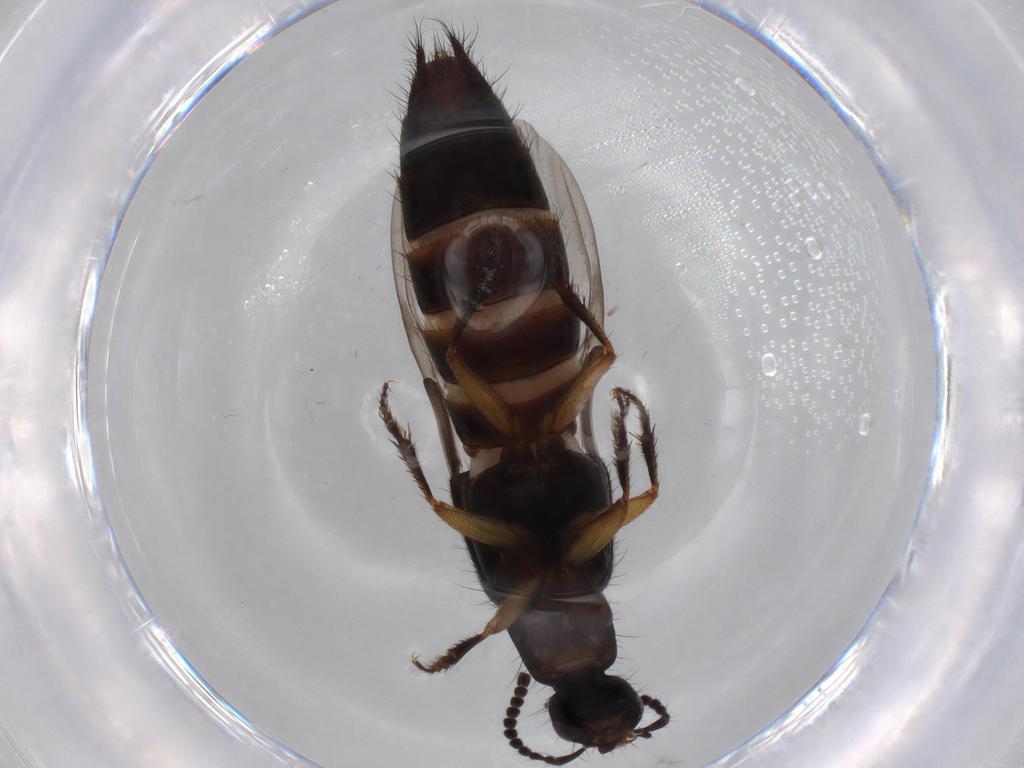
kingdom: Animalia
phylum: Arthropoda
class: Insecta
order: Coleoptera
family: Staphylinidae
